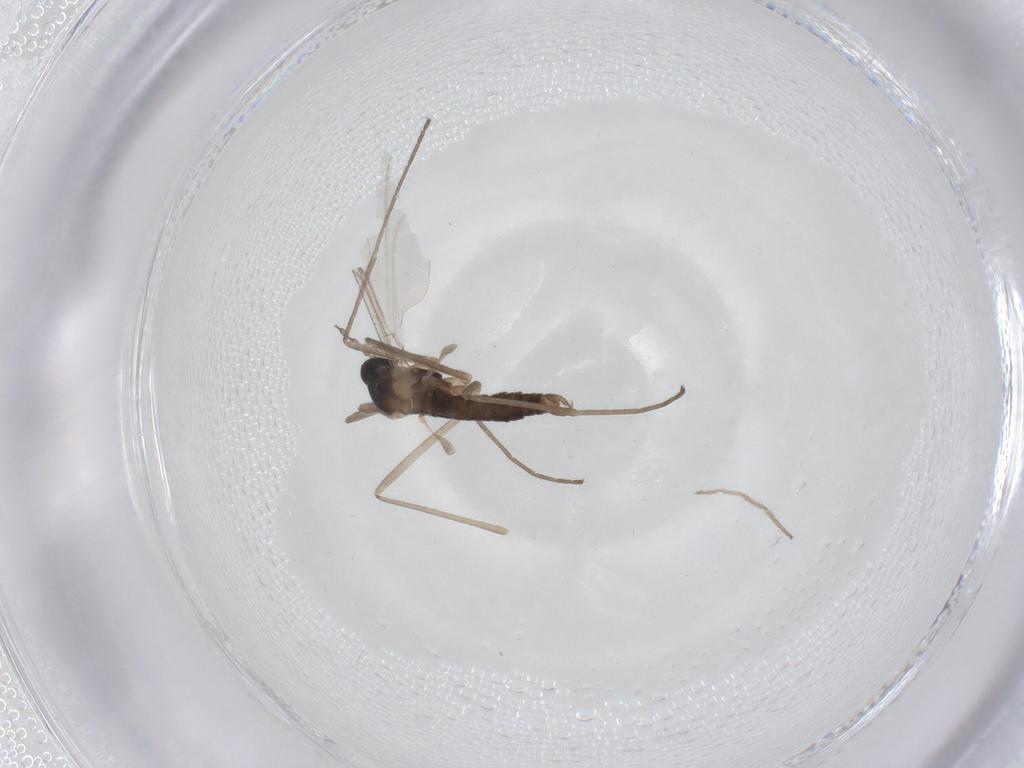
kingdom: Animalia
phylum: Arthropoda
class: Insecta
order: Diptera
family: Cecidomyiidae
